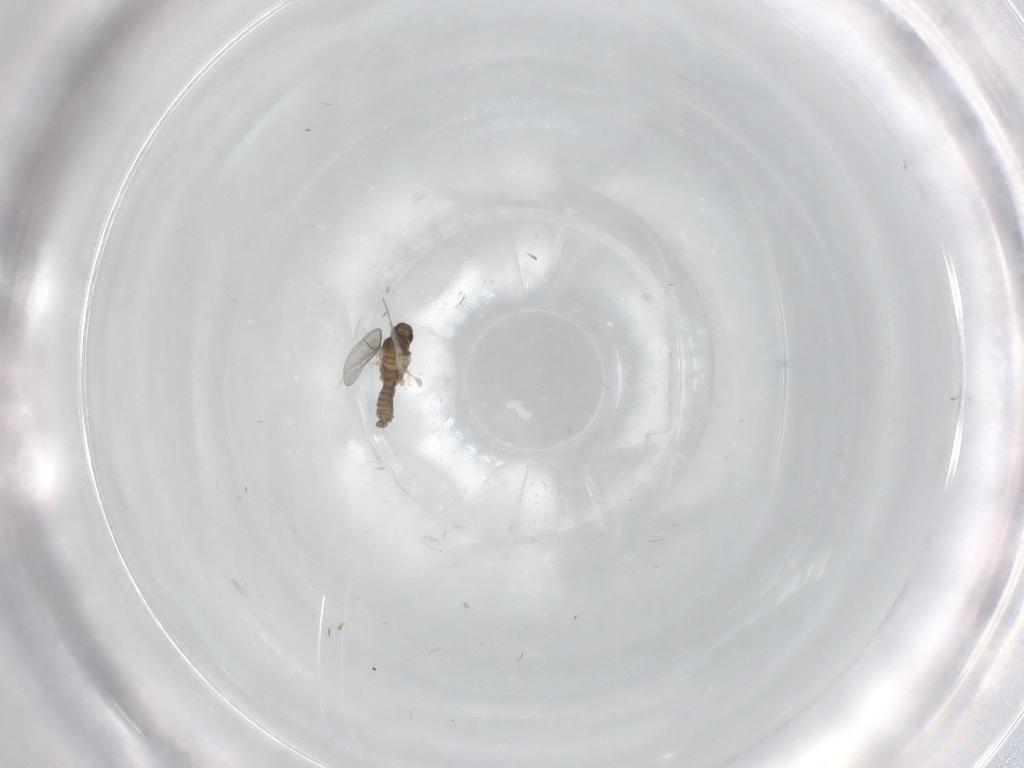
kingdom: Animalia
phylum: Arthropoda
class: Insecta
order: Diptera
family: Cecidomyiidae
